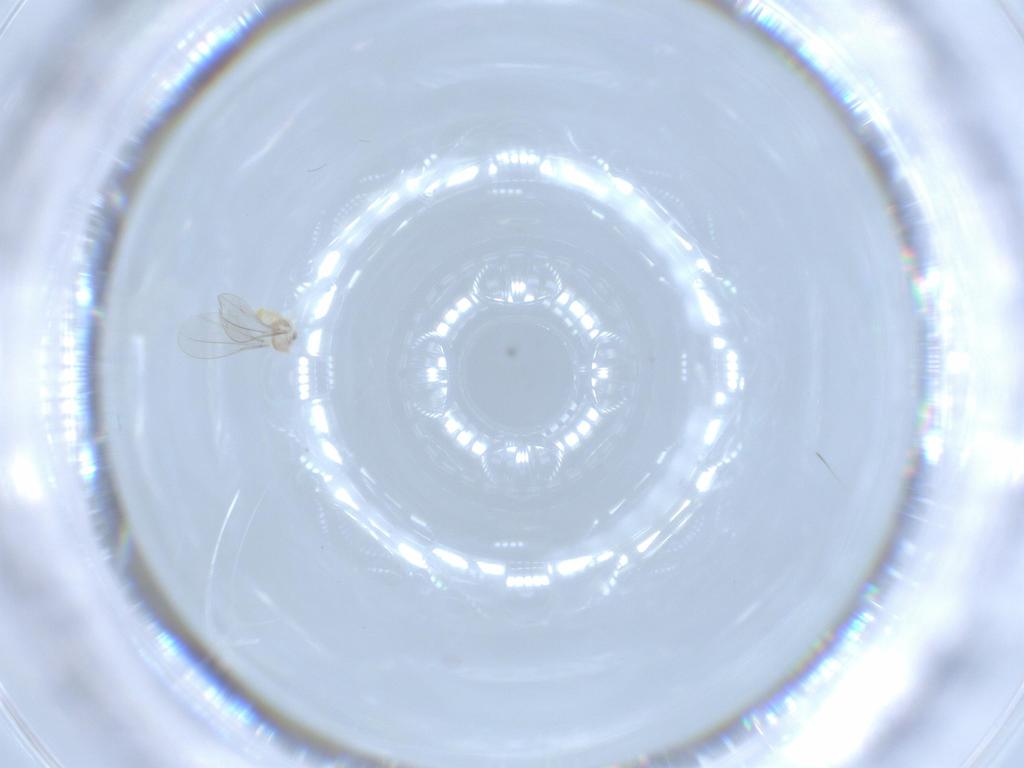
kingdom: Animalia
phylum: Arthropoda
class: Insecta
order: Diptera
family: Cecidomyiidae
